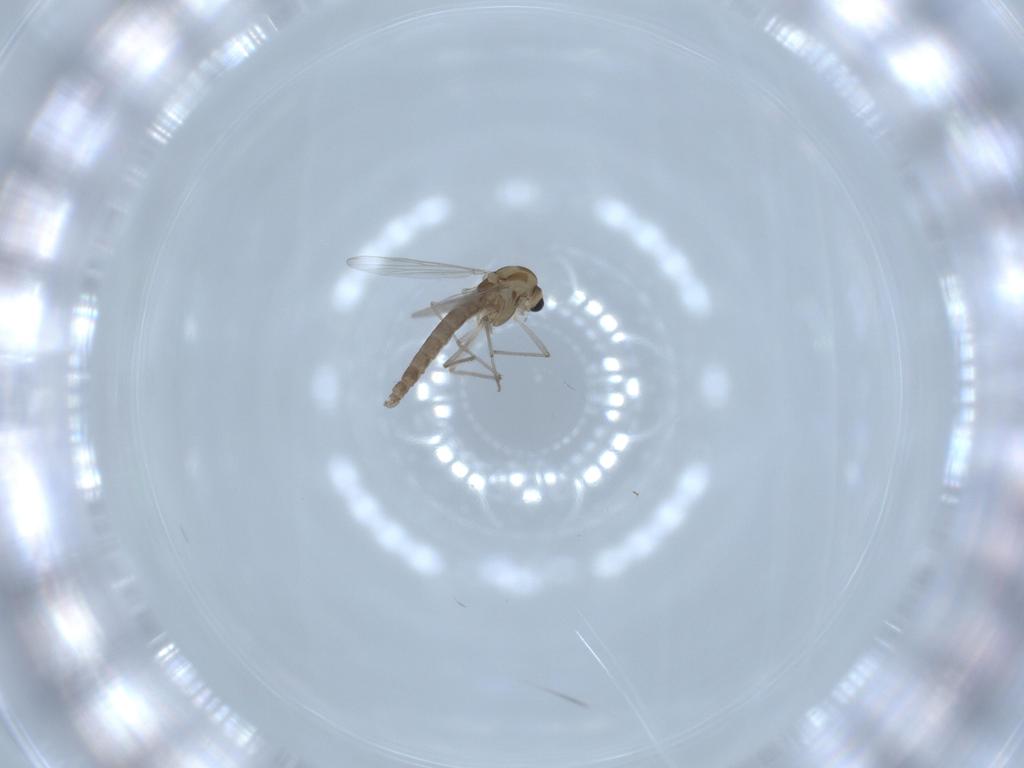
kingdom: Animalia
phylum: Arthropoda
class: Insecta
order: Diptera
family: Chironomidae
